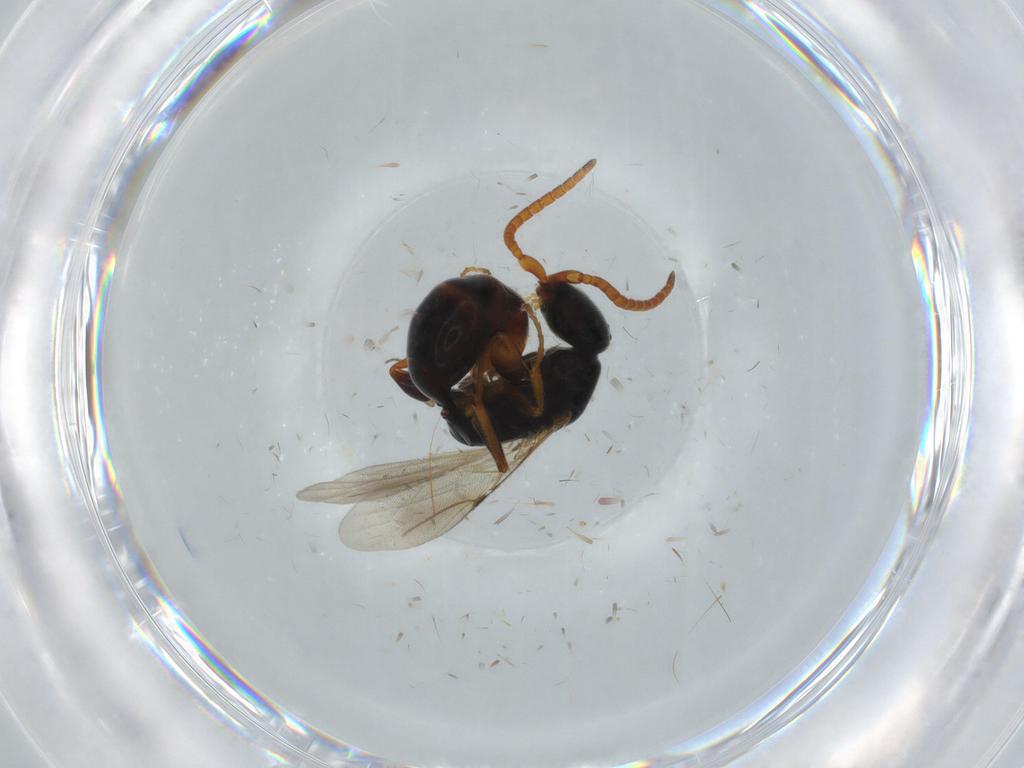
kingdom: Animalia
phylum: Arthropoda
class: Insecta
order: Hymenoptera
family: Bethylidae
